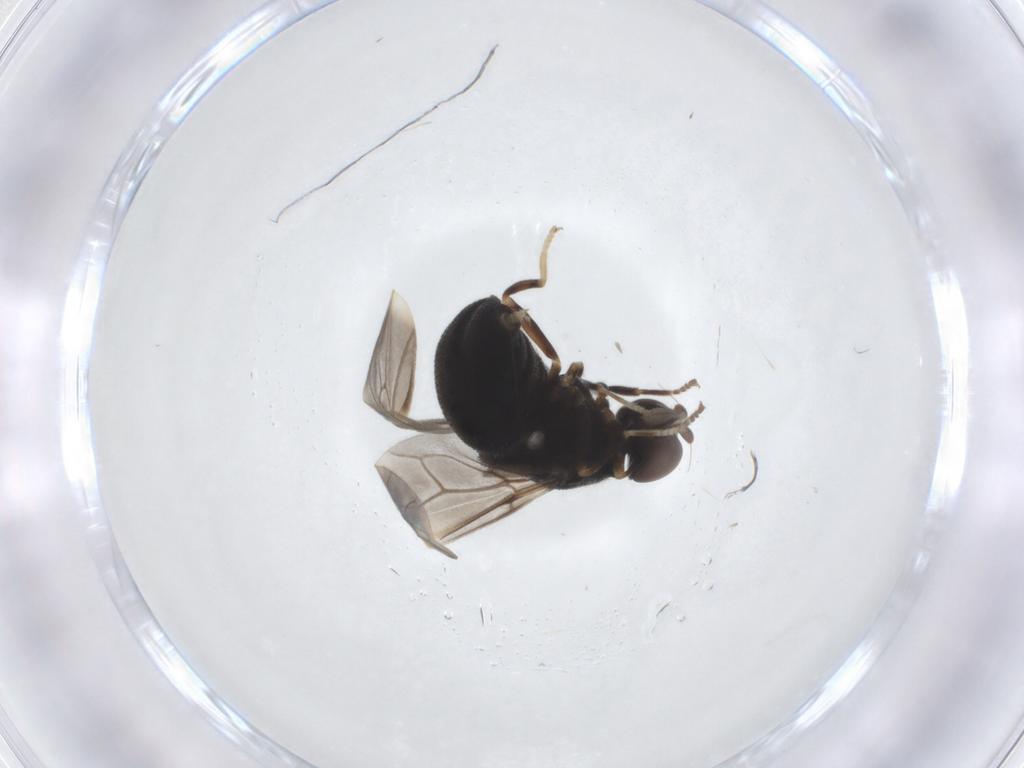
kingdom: Animalia
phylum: Arthropoda
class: Insecta
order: Diptera
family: Stratiomyidae
